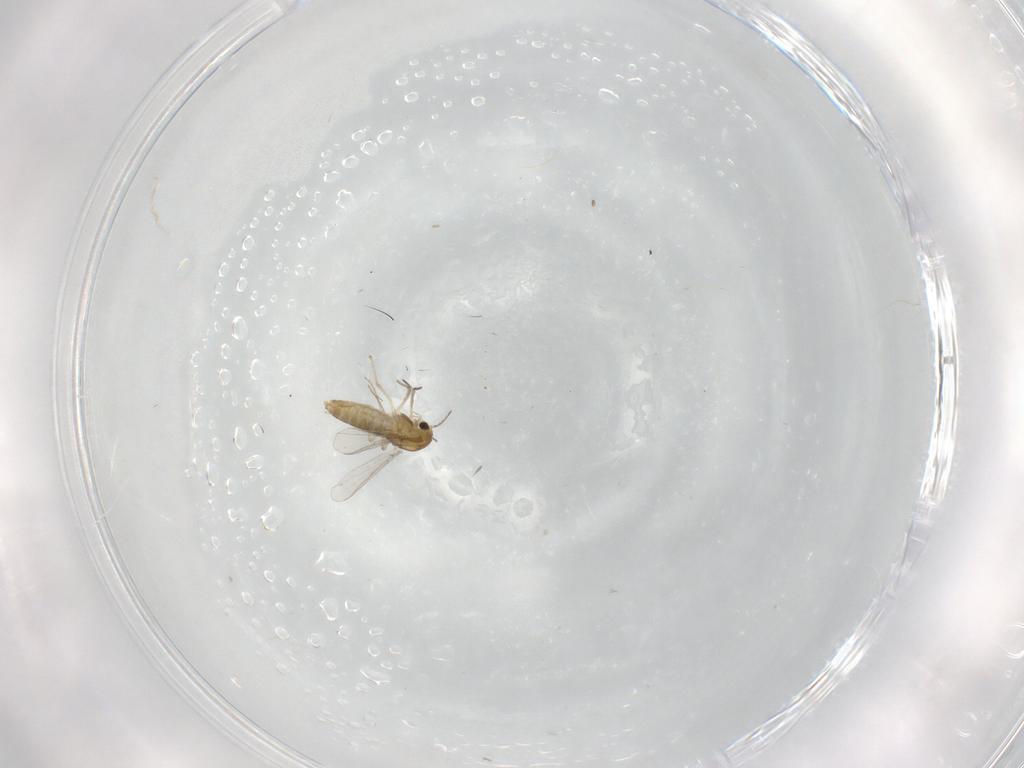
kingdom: Animalia
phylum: Arthropoda
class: Insecta
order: Diptera
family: Chironomidae
